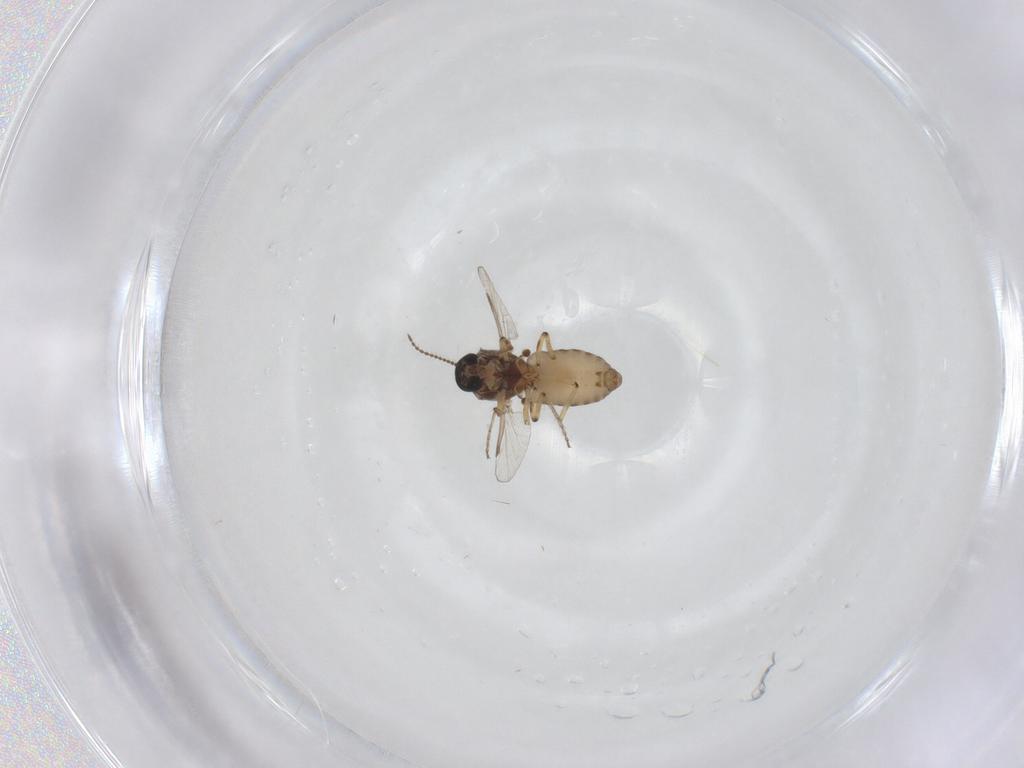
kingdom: Animalia
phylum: Arthropoda
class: Insecta
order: Diptera
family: Ceratopogonidae
